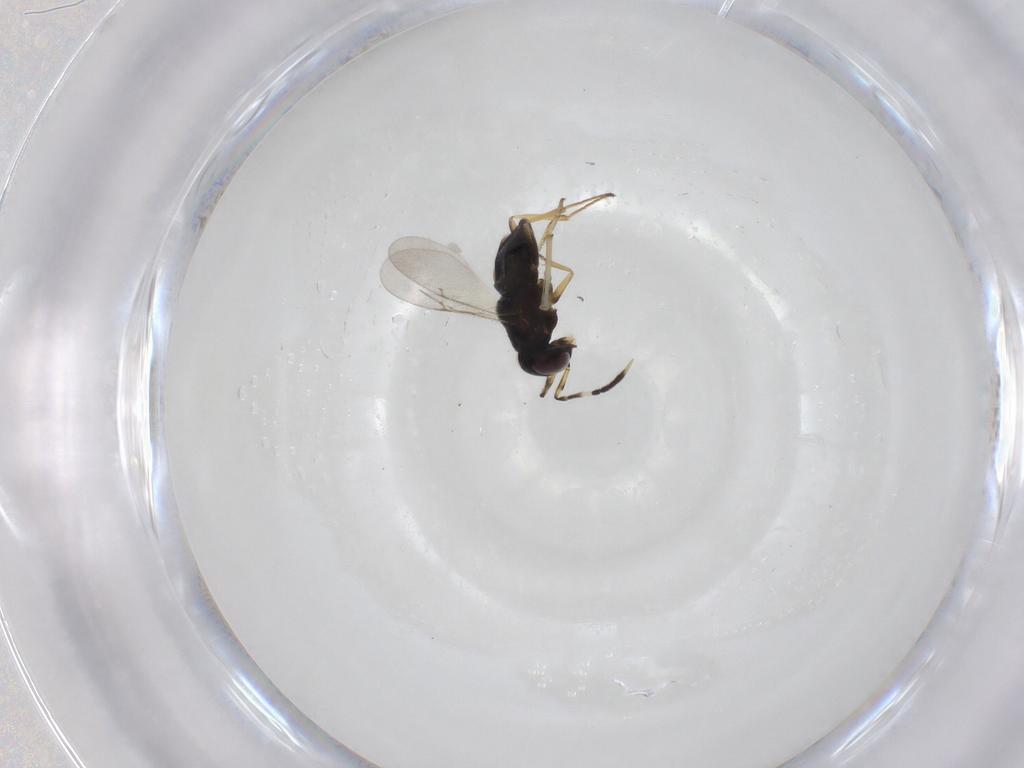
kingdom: Animalia
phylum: Arthropoda
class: Insecta
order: Hymenoptera
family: Encyrtidae
